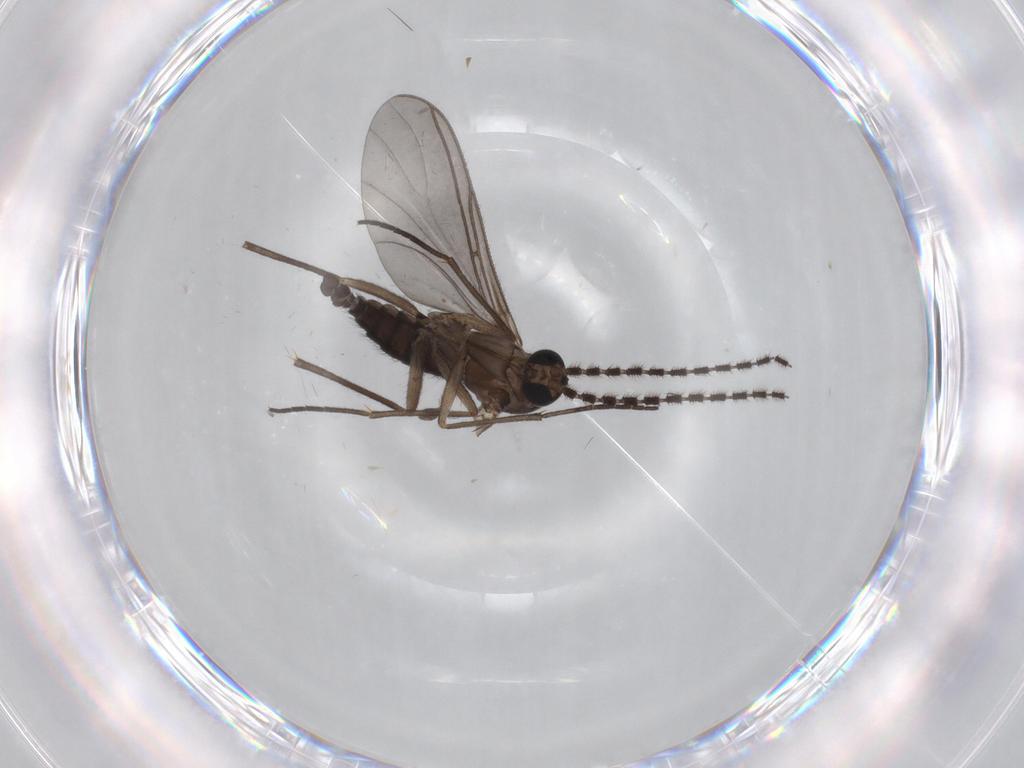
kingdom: Animalia
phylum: Arthropoda
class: Insecta
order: Diptera
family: Sciaridae
